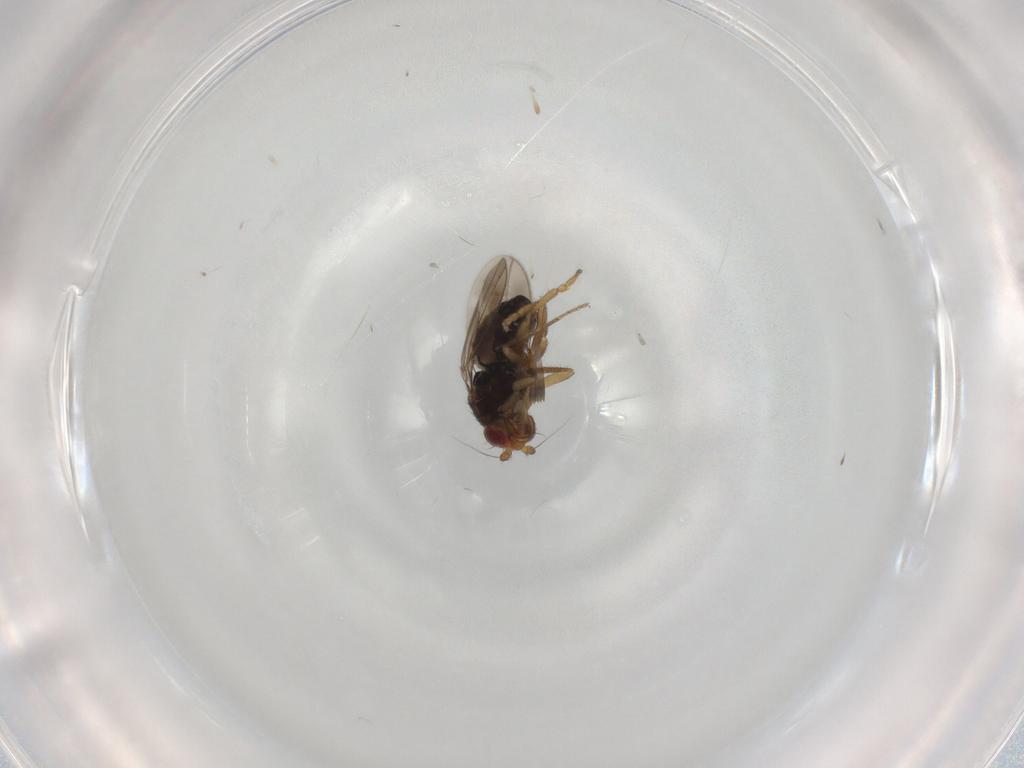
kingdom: Animalia
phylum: Arthropoda
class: Insecta
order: Diptera
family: Sphaeroceridae
